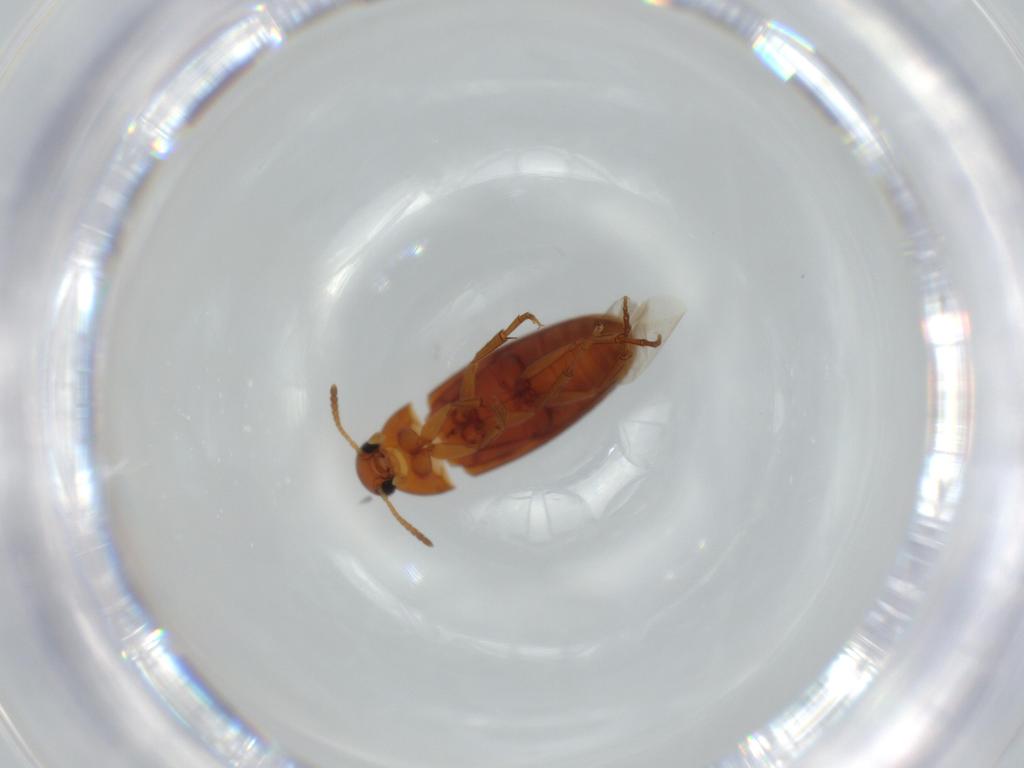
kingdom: Animalia
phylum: Arthropoda
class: Insecta
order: Coleoptera
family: Scraptiidae
